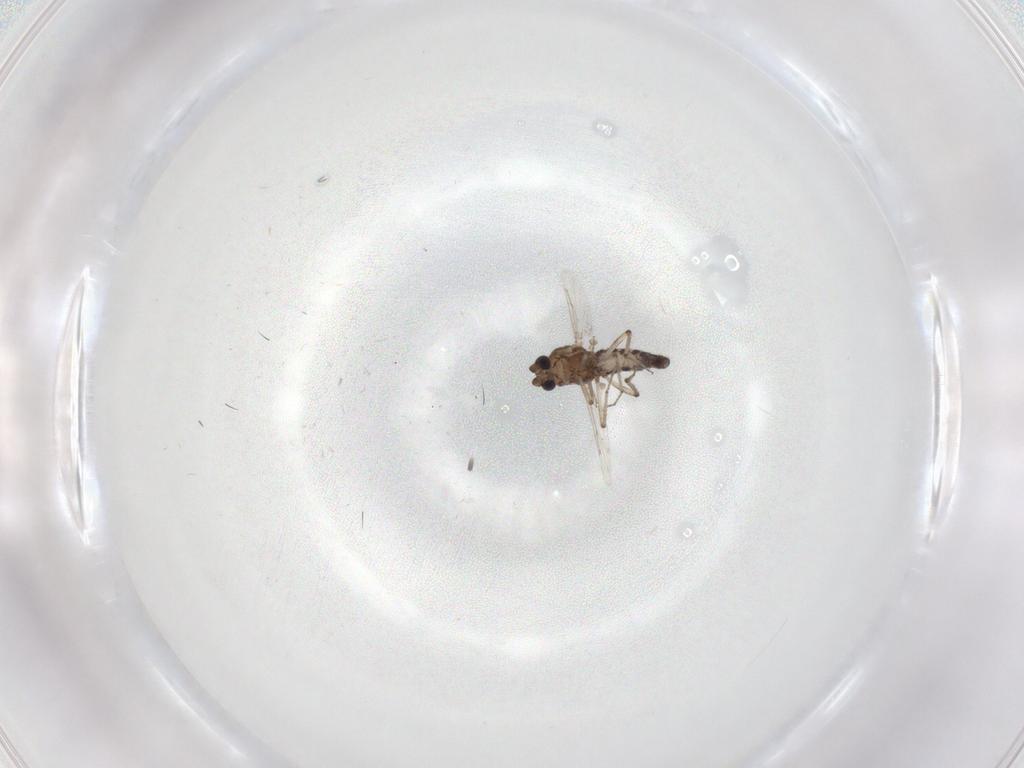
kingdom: Animalia
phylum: Arthropoda
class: Insecta
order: Diptera
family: Ceratopogonidae
